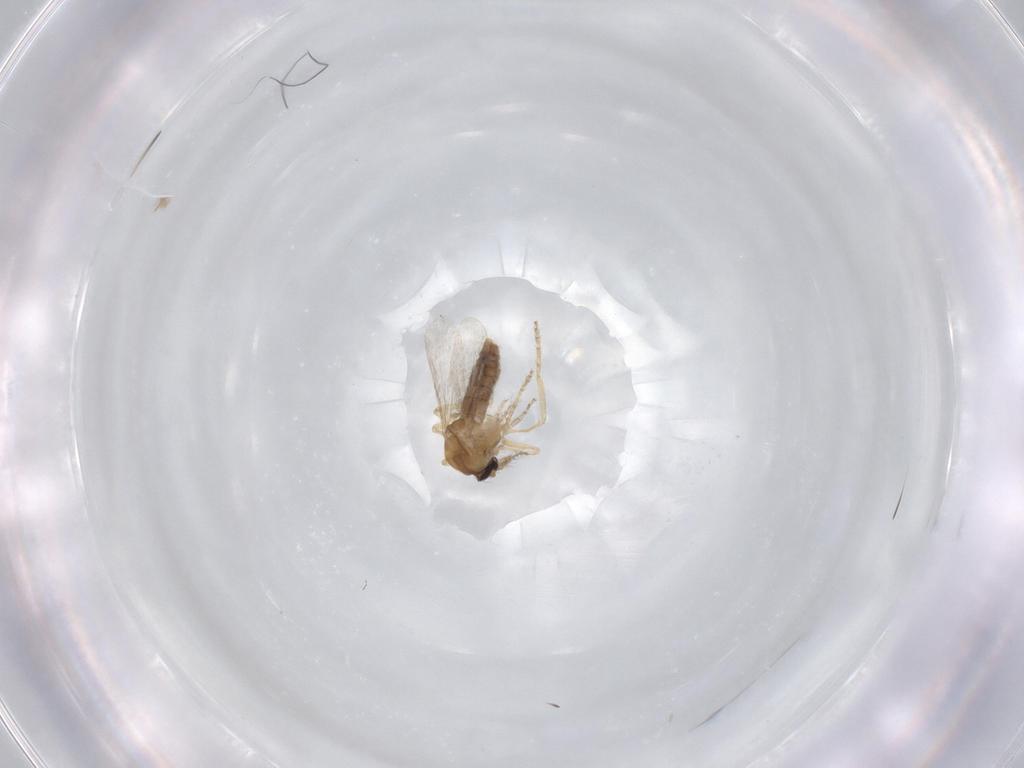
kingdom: Animalia
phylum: Arthropoda
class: Insecta
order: Diptera
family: Ceratopogonidae
